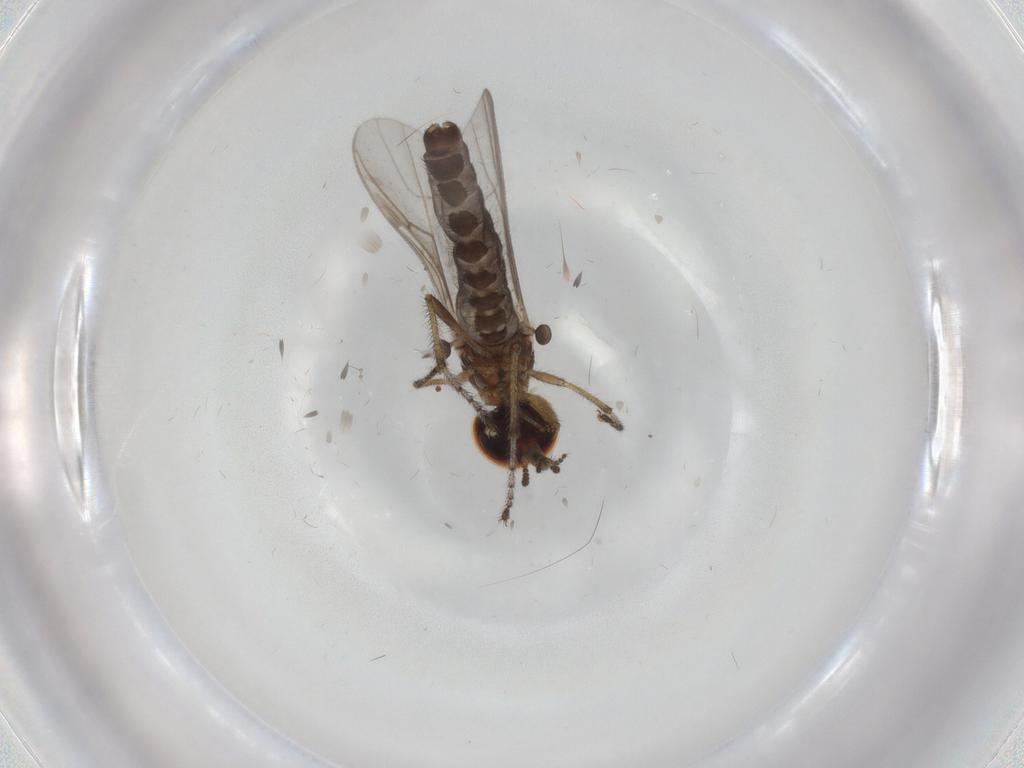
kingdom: Animalia
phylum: Arthropoda
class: Insecta
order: Diptera
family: Bibionidae
